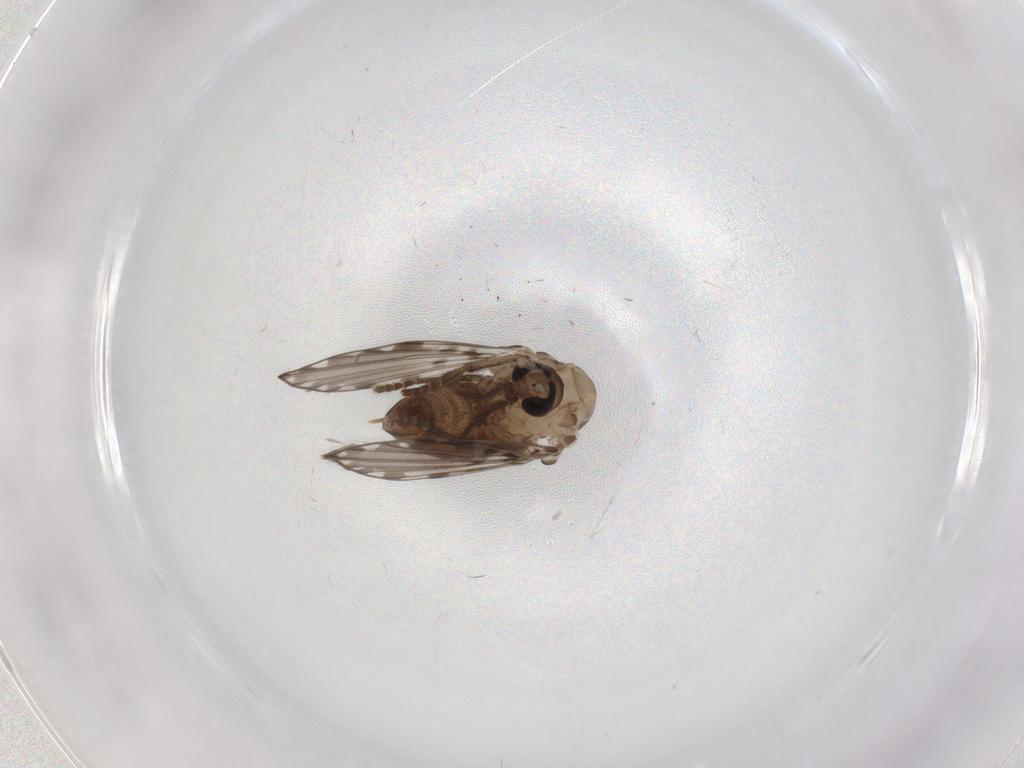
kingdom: Animalia
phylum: Arthropoda
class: Insecta
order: Diptera
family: Psychodidae
